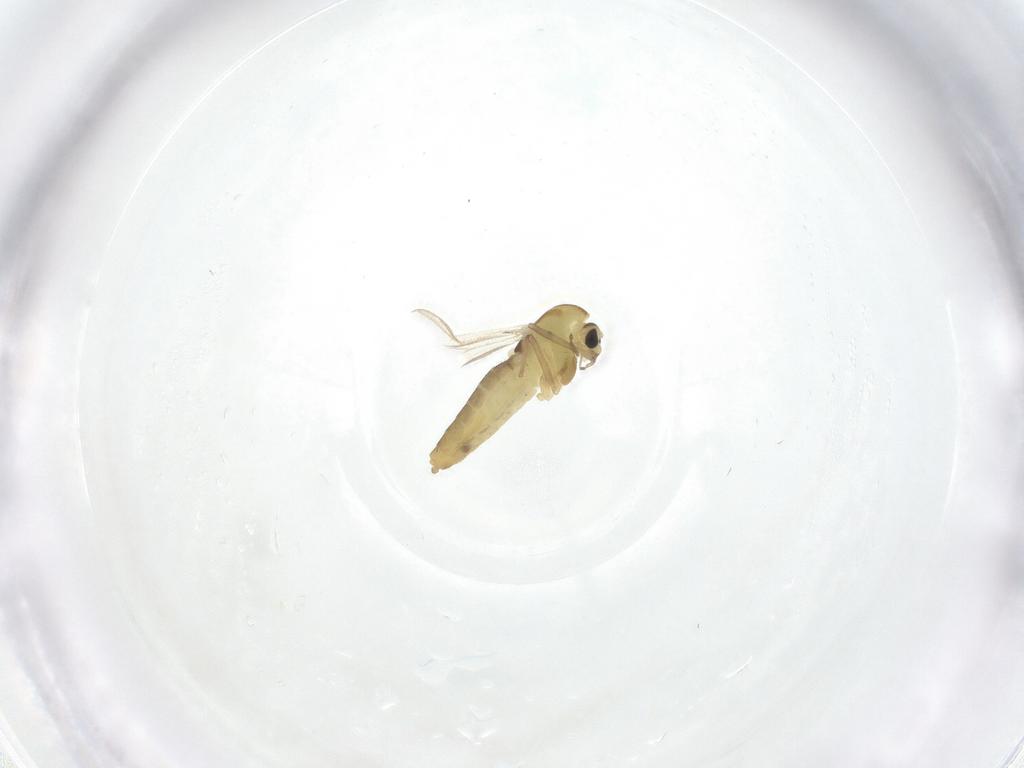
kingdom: Animalia
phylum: Arthropoda
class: Insecta
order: Diptera
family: Chironomidae
